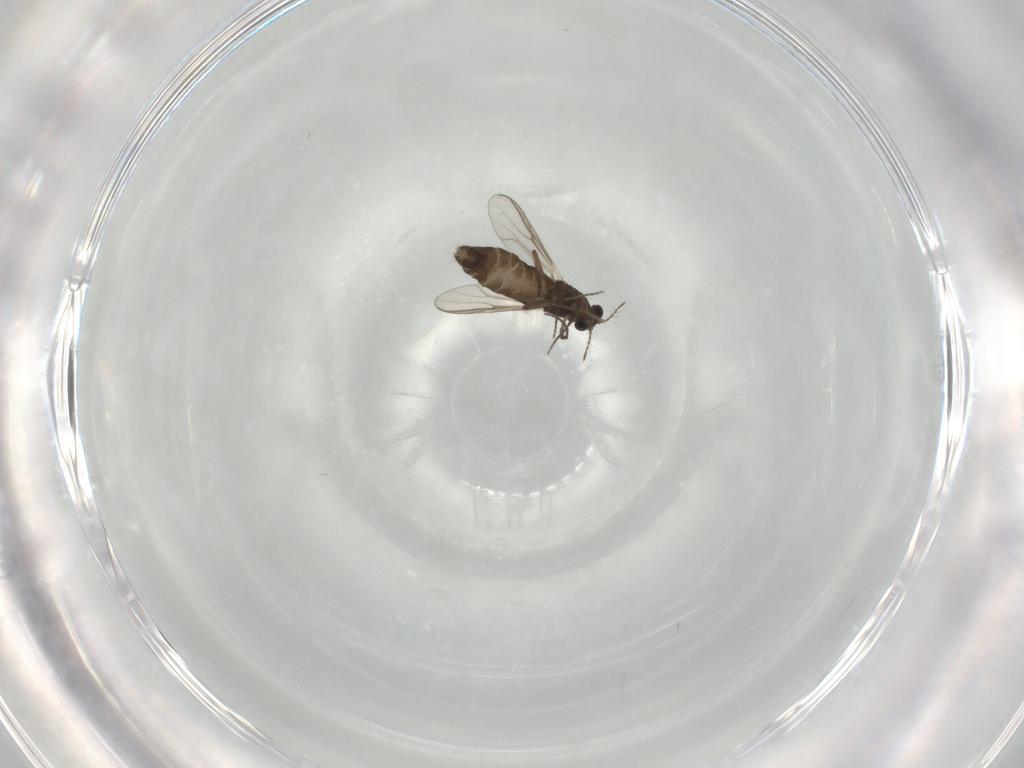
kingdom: Animalia
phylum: Arthropoda
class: Insecta
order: Diptera
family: Chironomidae
